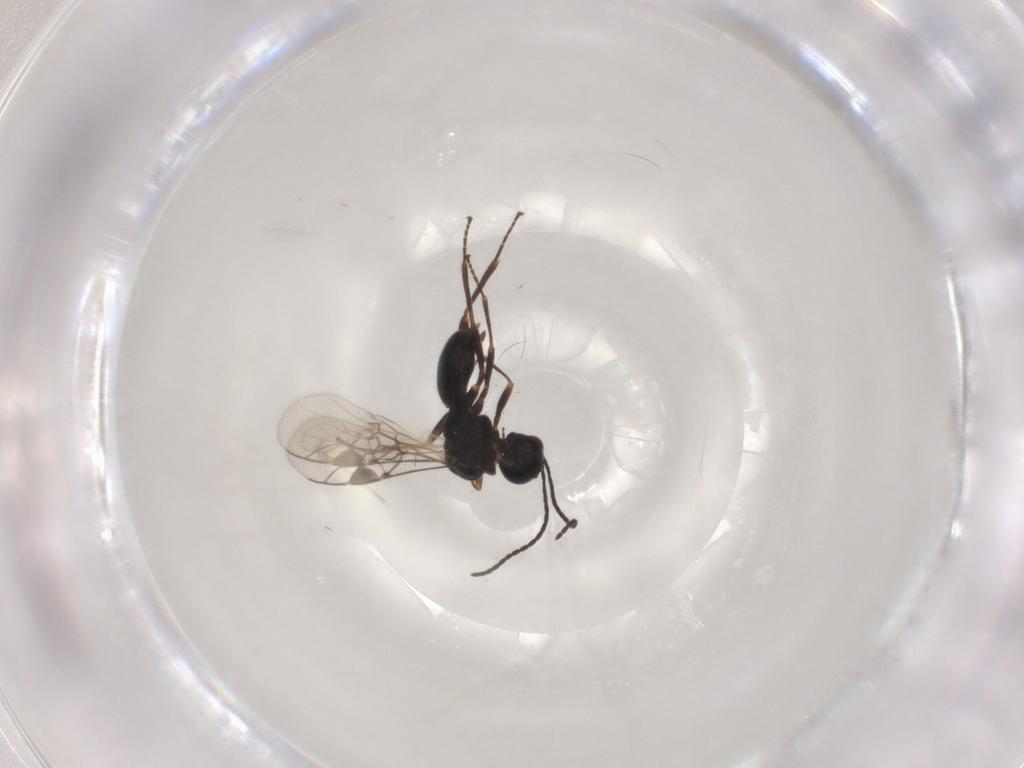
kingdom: Animalia
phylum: Arthropoda
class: Insecta
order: Hymenoptera
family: Braconidae
